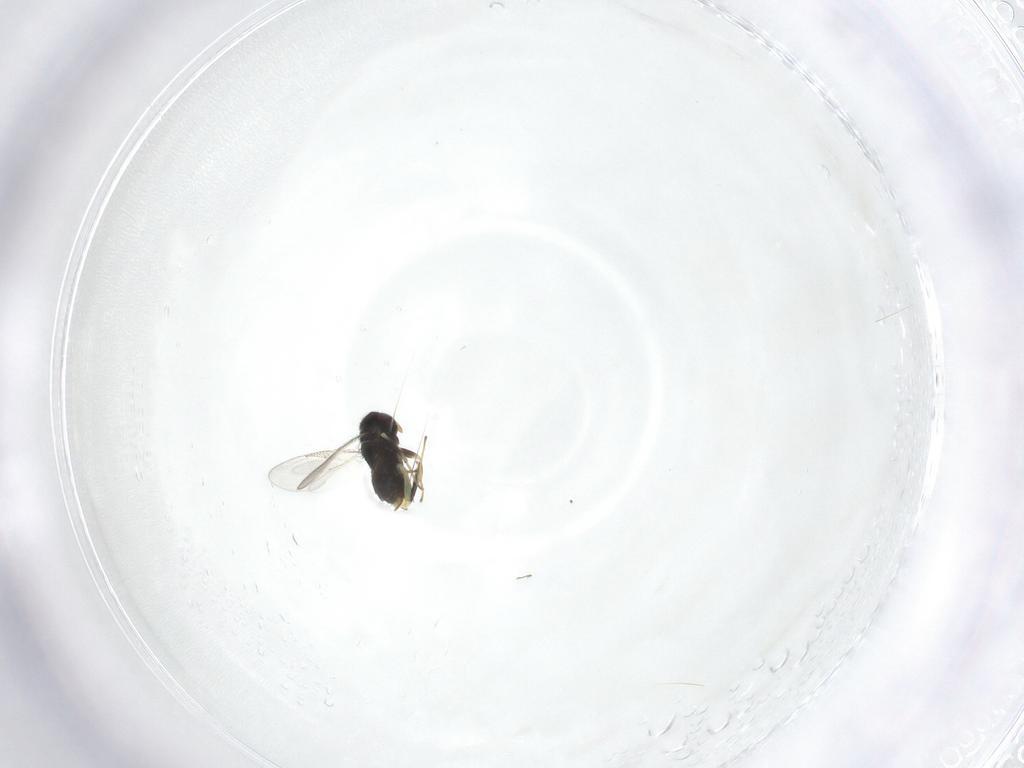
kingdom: Animalia
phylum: Arthropoda
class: Insecta
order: Hymenoptera
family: Aphelinidae
